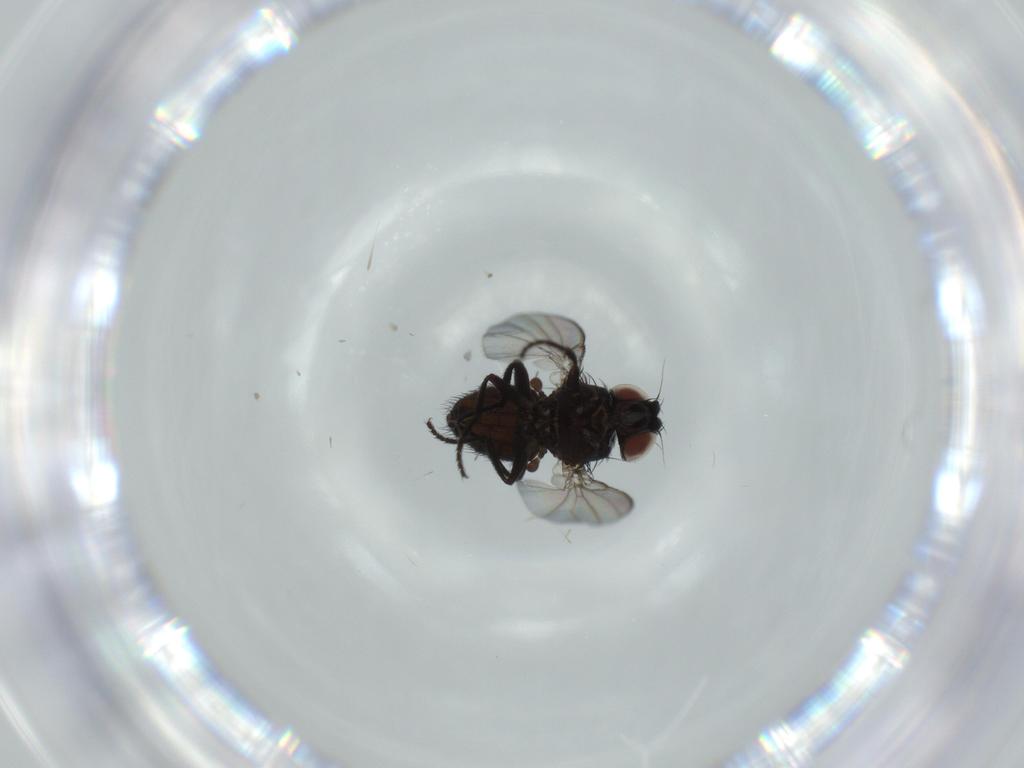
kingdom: Animalia
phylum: Arthropoda
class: Insecta
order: Diptera
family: Milichiidae
